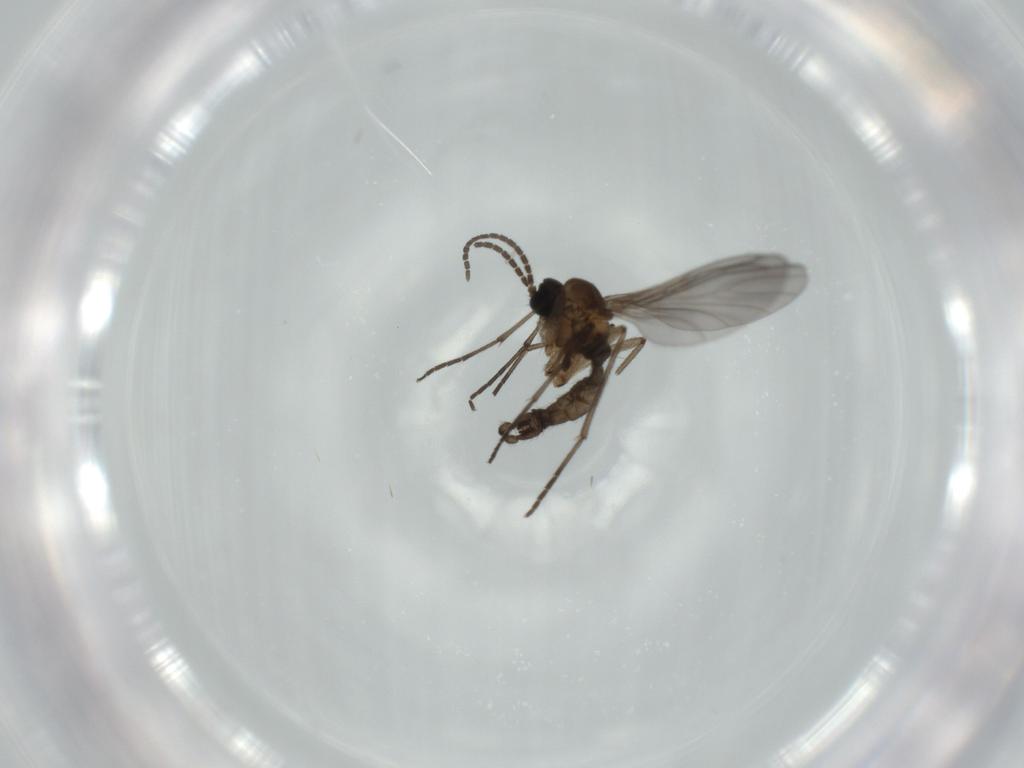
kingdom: Animalia
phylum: Arthropoda
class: Insecta
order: Diptera
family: Sciaridae
